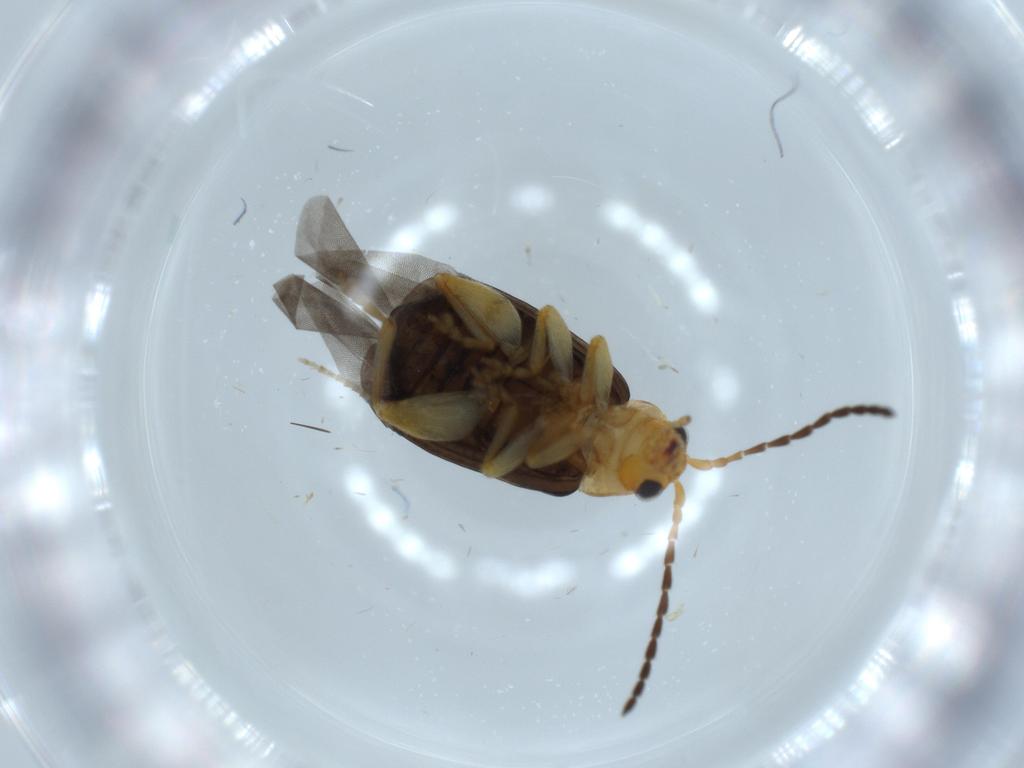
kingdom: Animalia
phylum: Arthropoda
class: Insecta
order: Coleoptera
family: Chrysomelidae
